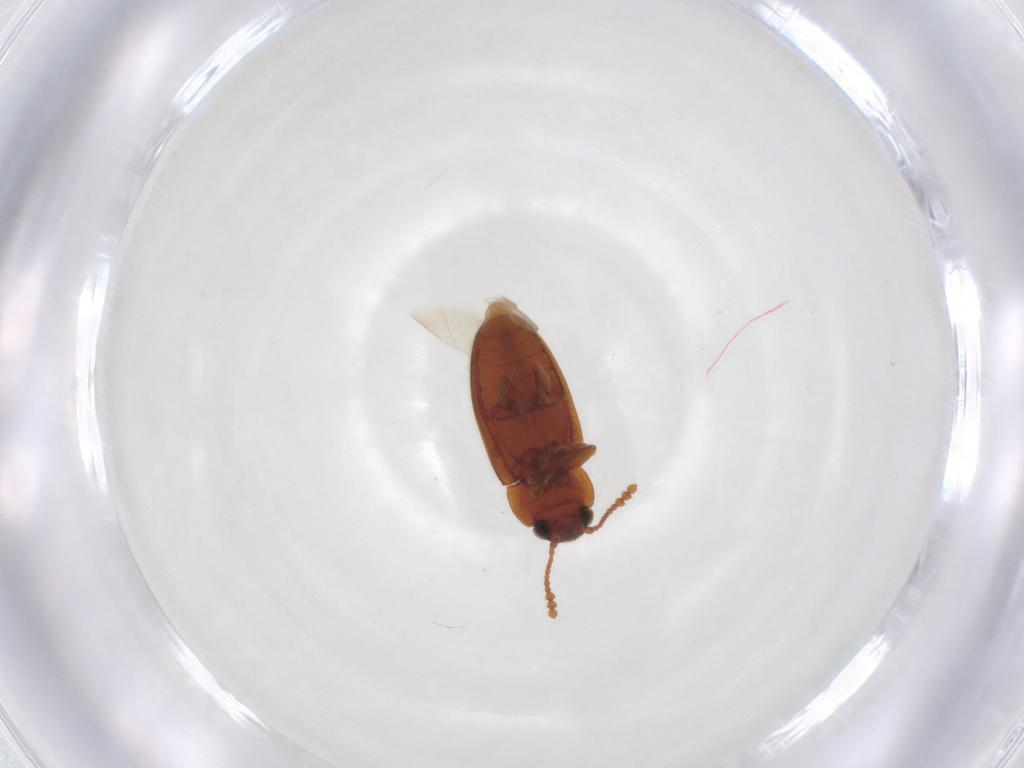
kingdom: Animalia
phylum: Arthropoda
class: Insecta
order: Coleoptera
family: Erotylidae
